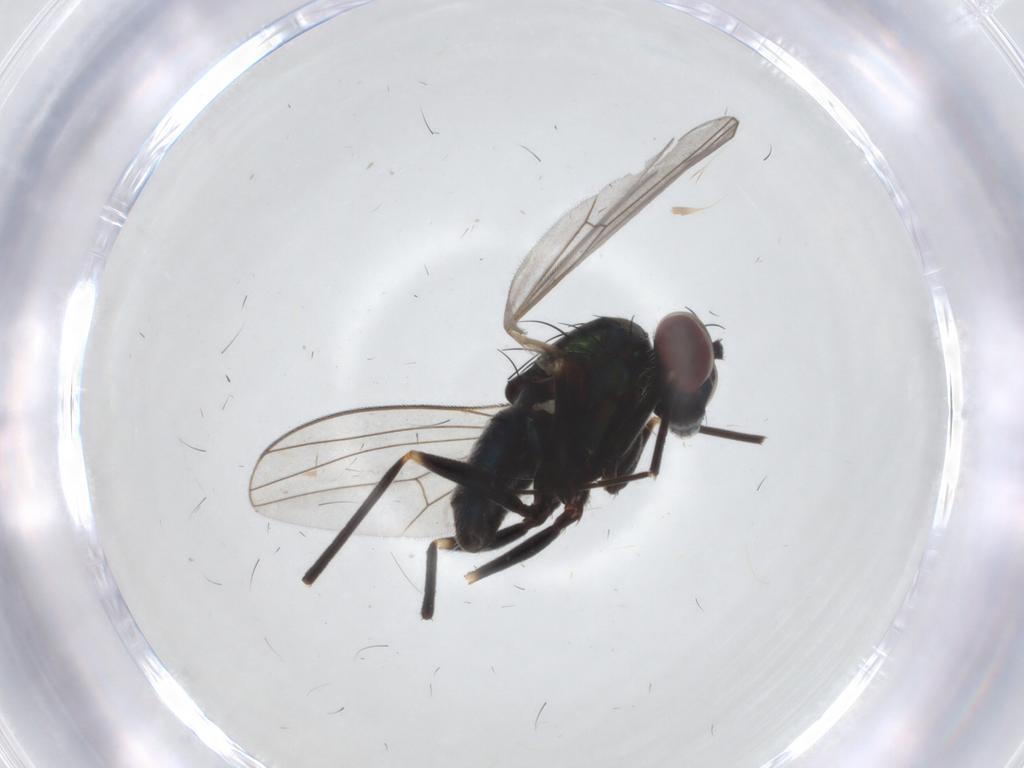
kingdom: Animalia
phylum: Arthropoda
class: Insecta
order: Diptera
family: Dolichopodidae
